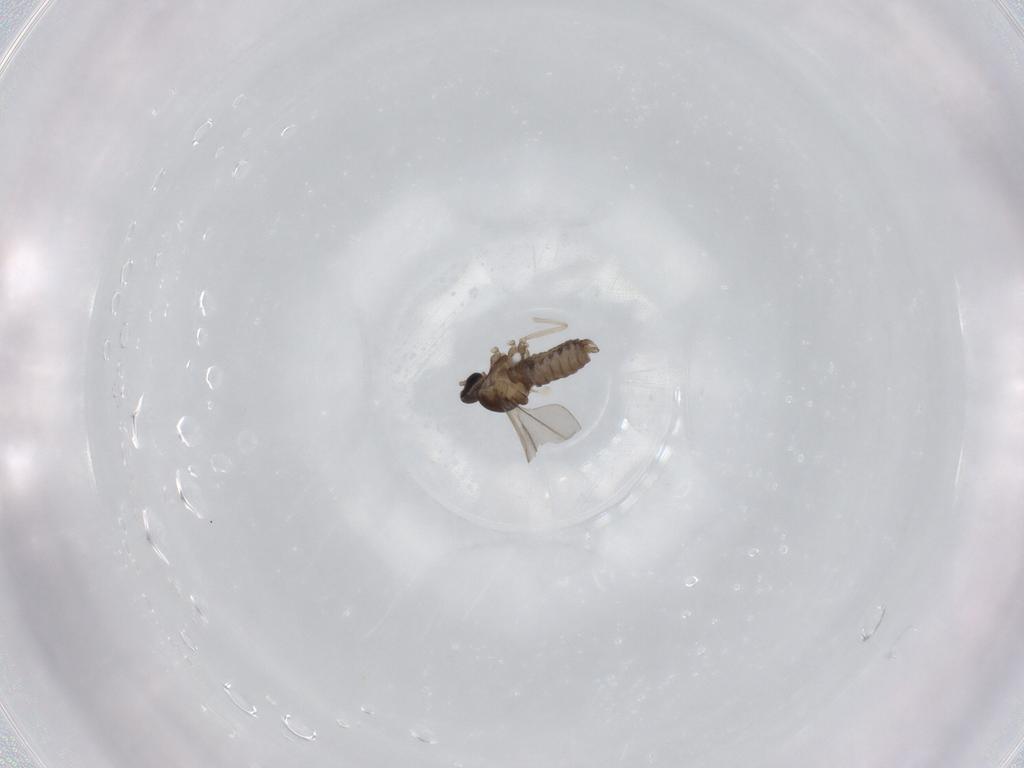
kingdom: Animalia
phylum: Arthropoda
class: Insecta
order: Diptera
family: Cecidomyiidae
